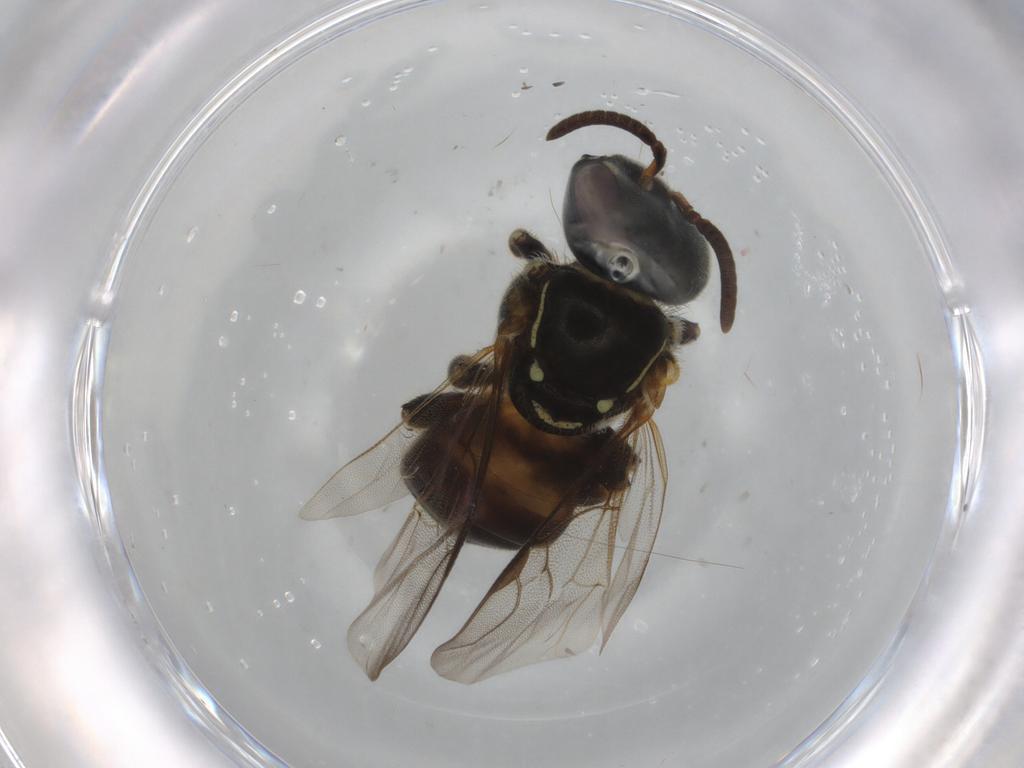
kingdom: Animalia
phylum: Arthropoda
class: Insecta
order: Hymenoptera
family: Apidae
